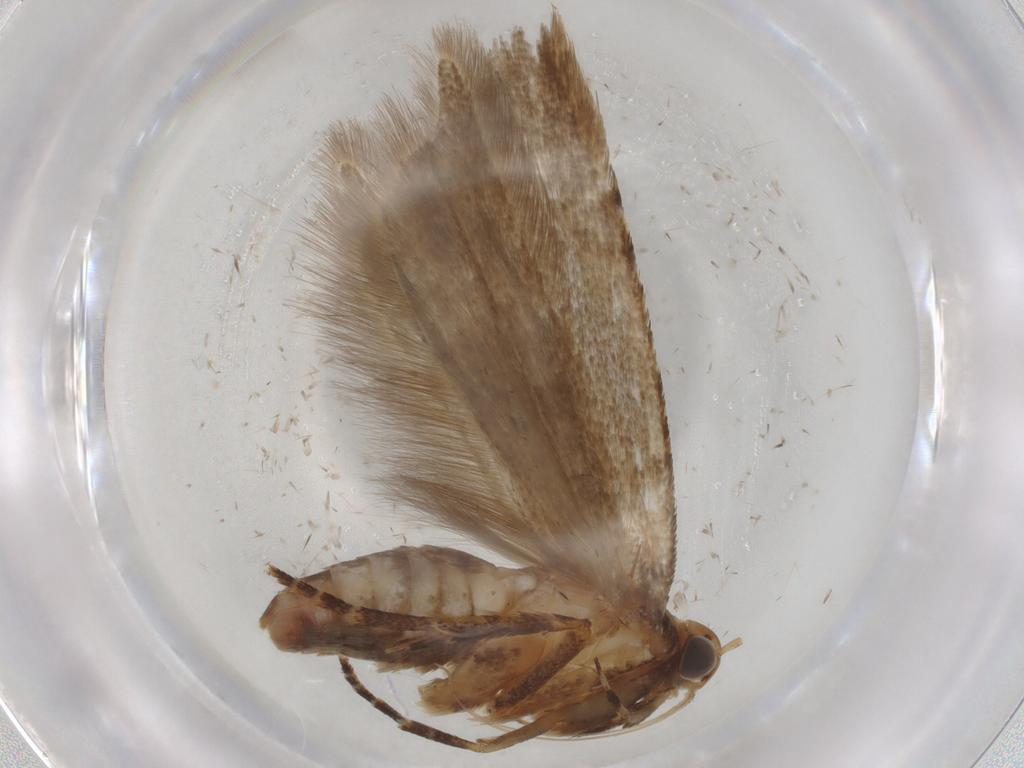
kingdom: Animalia
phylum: Arthropoda
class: Insecta
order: Lepidoptera
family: Gelechiidae
